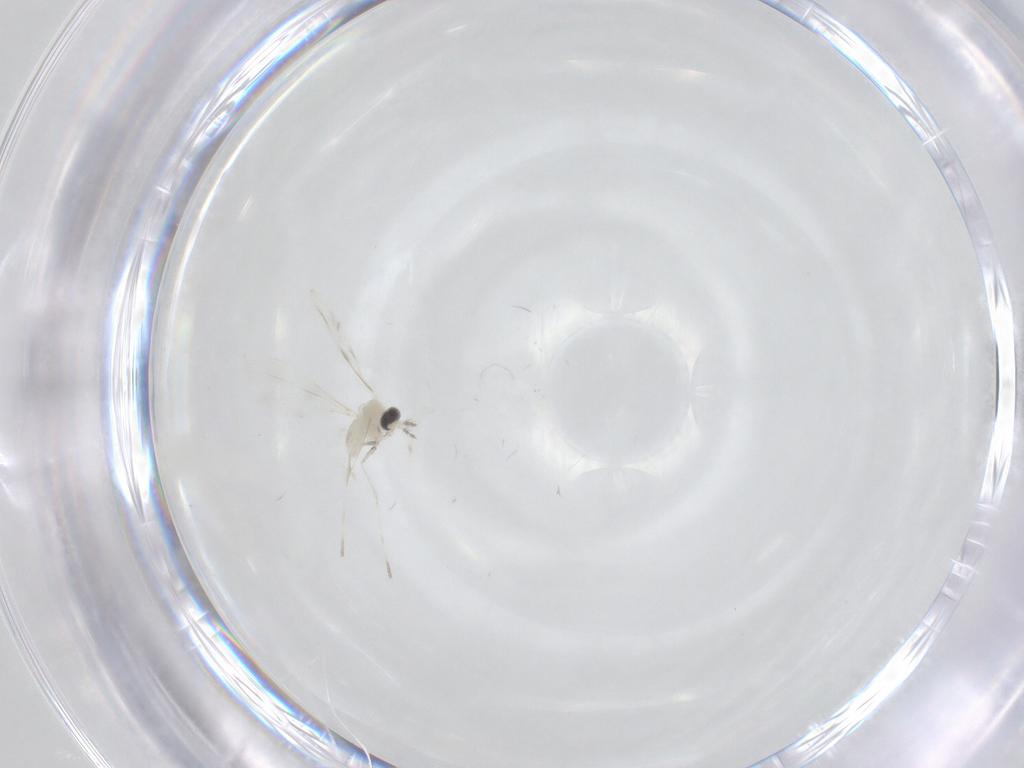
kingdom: Animalia
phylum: Arthropoda
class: Insecta
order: Diptera
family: Cecidomyiidae
